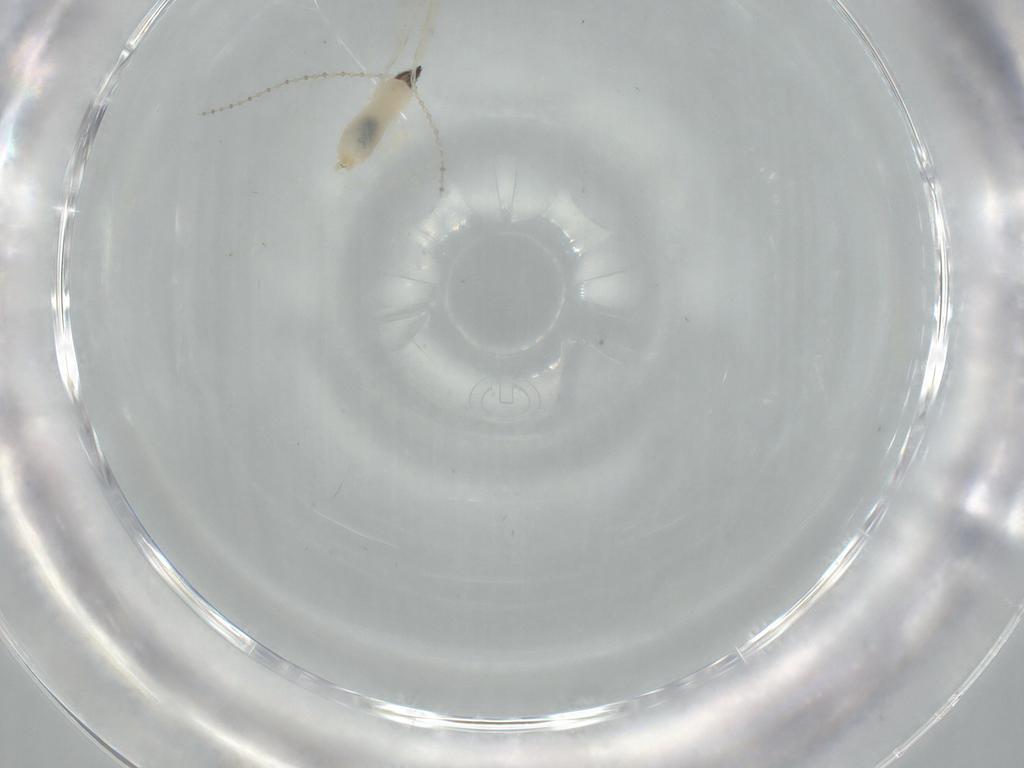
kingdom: Animalia
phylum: Arthropoda
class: Insecta
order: Diptera
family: Cecidomyiidae
